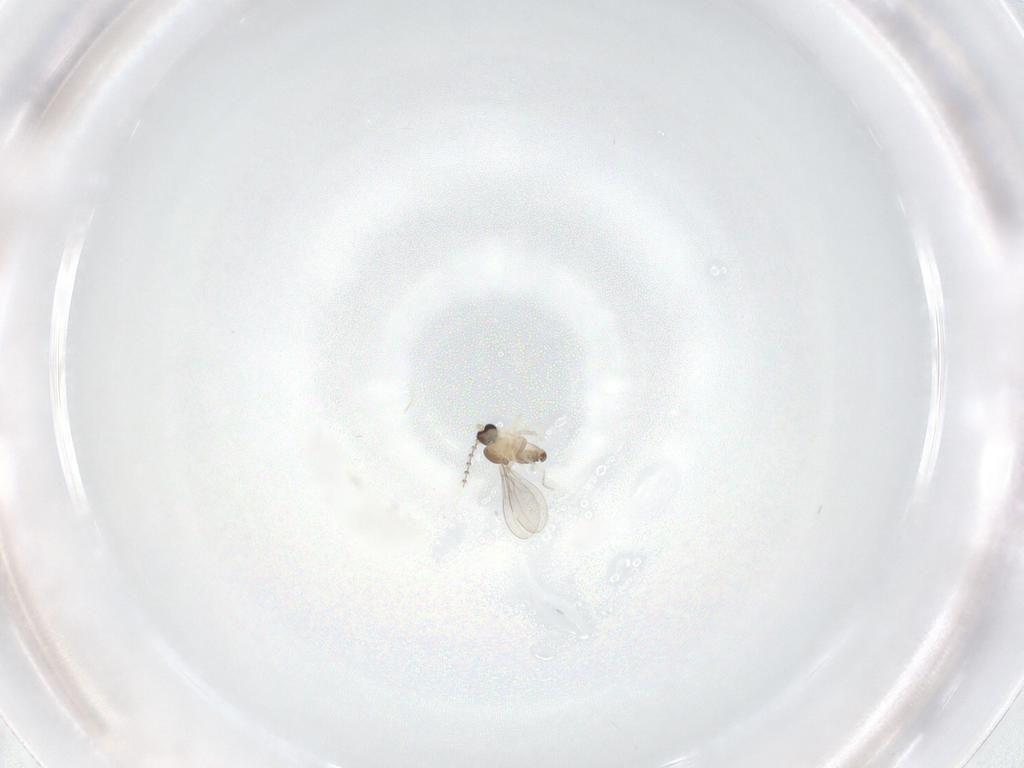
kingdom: Animalia
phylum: Arthropoda
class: Insecta
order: Diptera
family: Cecidomyiidae
